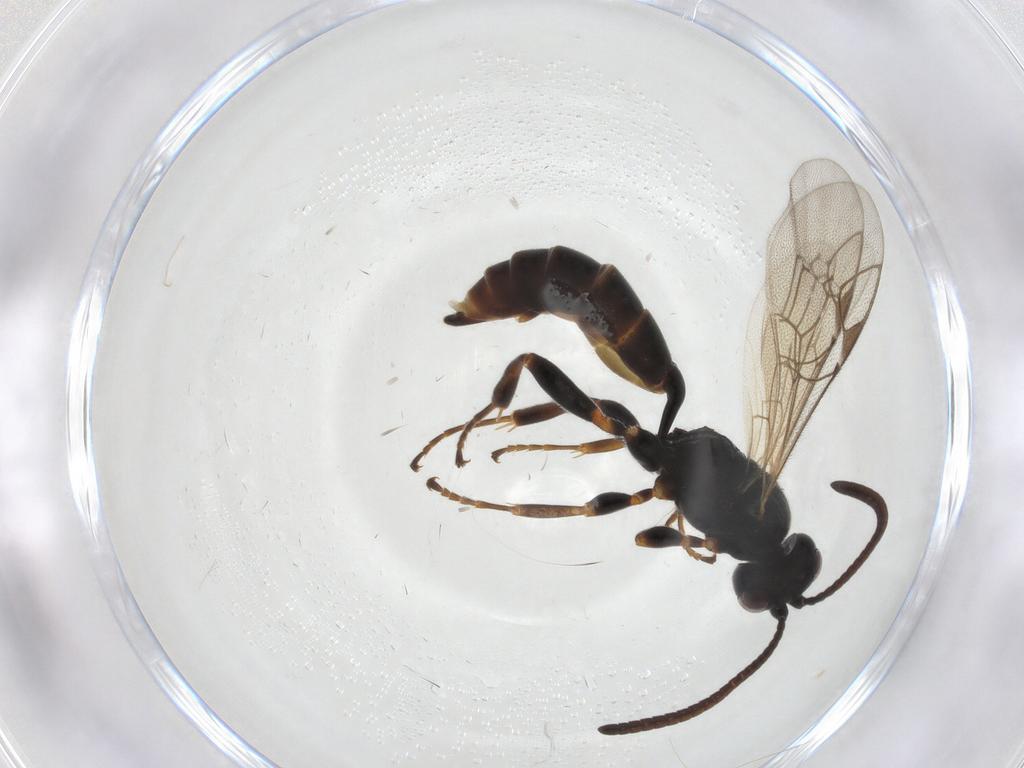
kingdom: Animalia
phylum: Arthropoda
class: Insecta
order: Hymenoptera
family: Ichneumonidae
